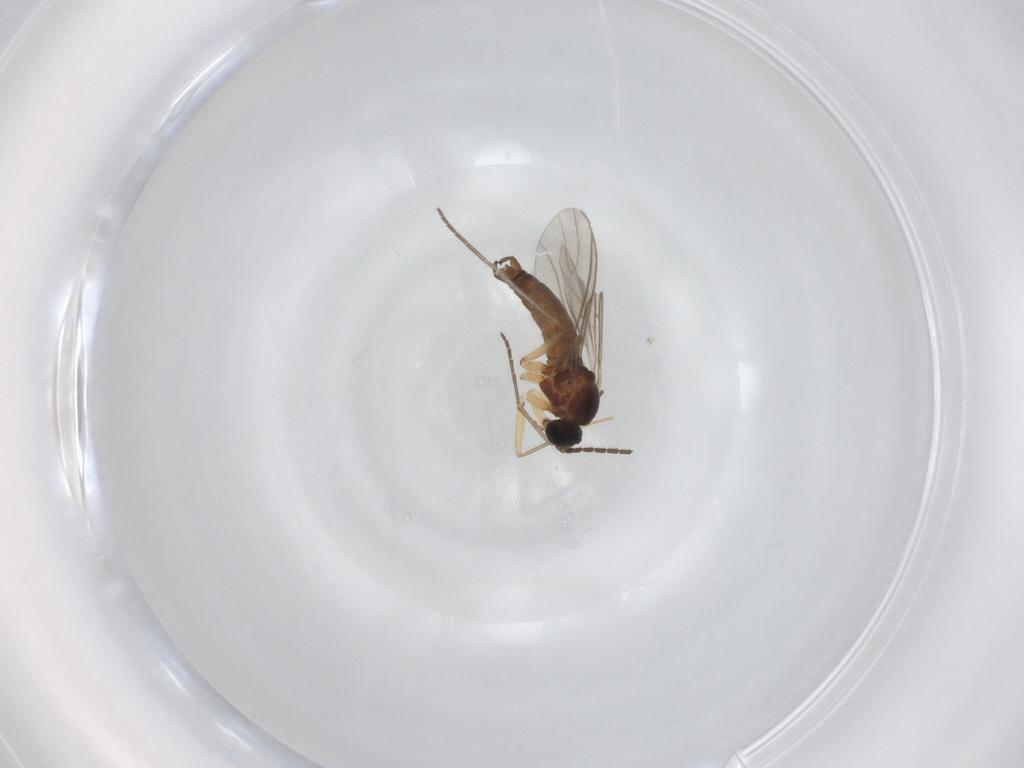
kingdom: Animalia
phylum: Arthropoda
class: Insecta
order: Diptera
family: Sciaridae
